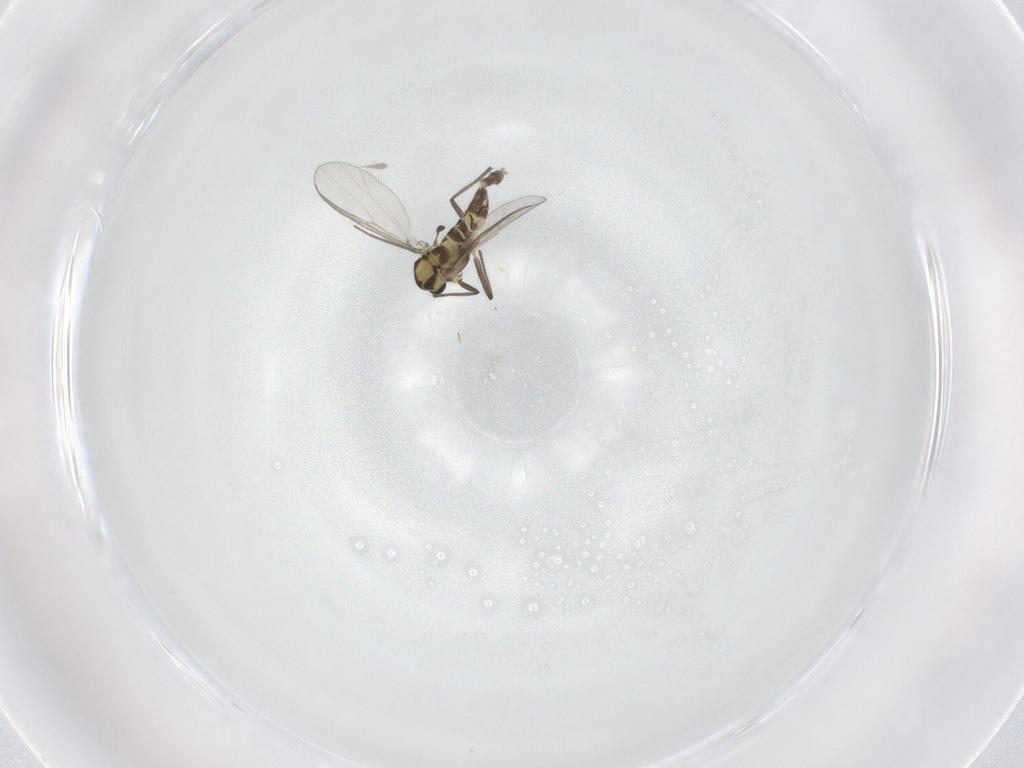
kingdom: Animalia
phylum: Arthropoda
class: Insecta
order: Diptera
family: Chironomidae
